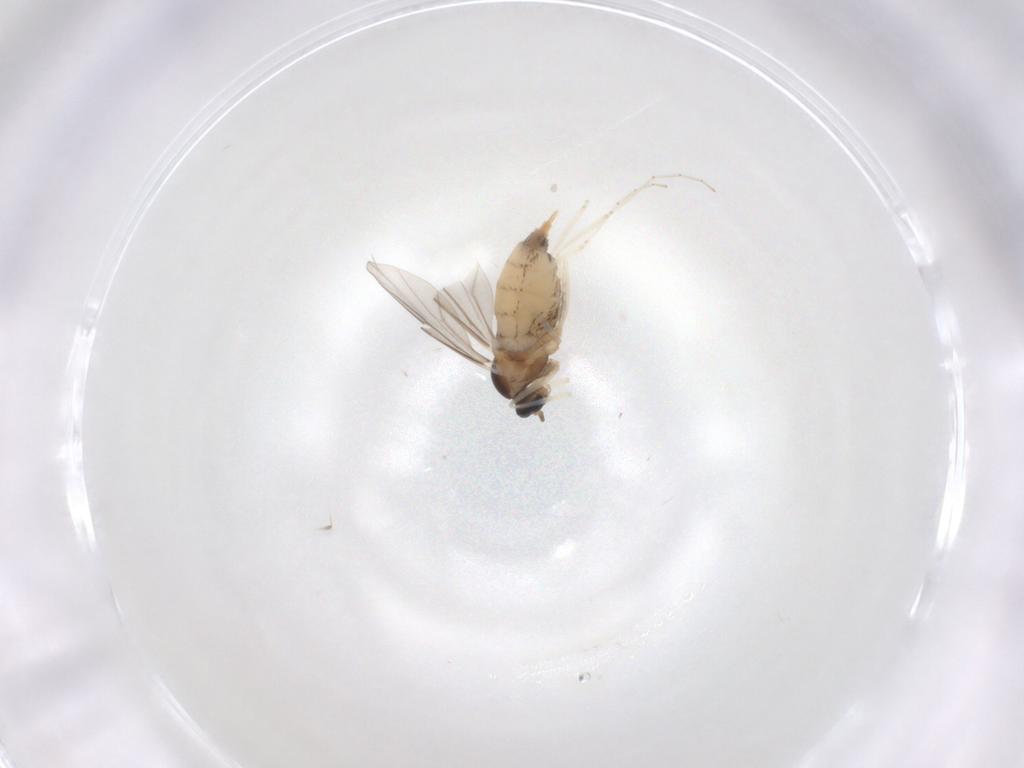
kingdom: Animalia
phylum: Arthropoda
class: Insecta
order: Diptera
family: Cecidomyiidae
